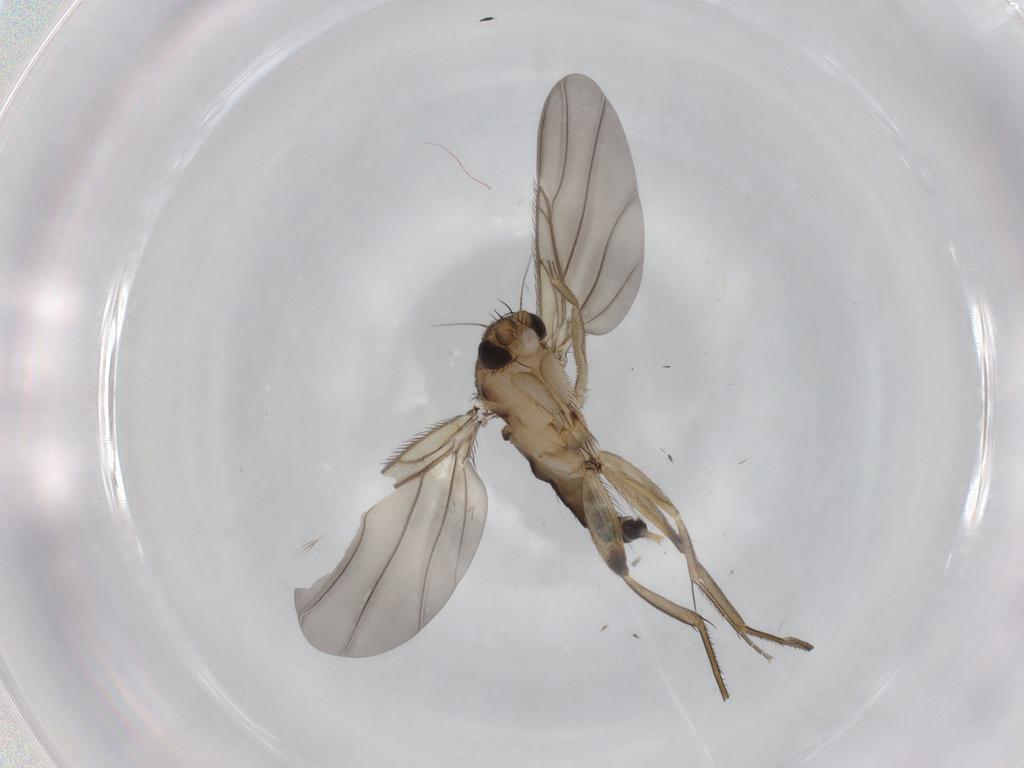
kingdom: Animalia
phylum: Arthropoda
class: Insecta
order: Diptera
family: Phoridae
